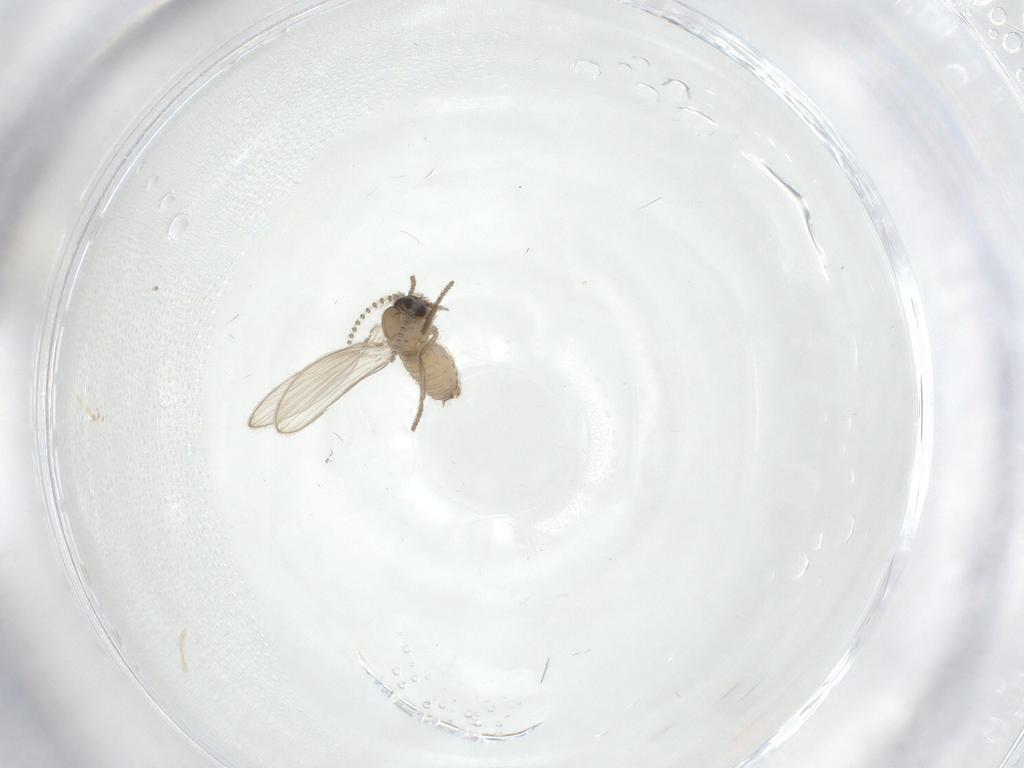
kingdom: Animalia
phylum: Arthropoda
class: Insecta
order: Diptera
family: Psychodidae
